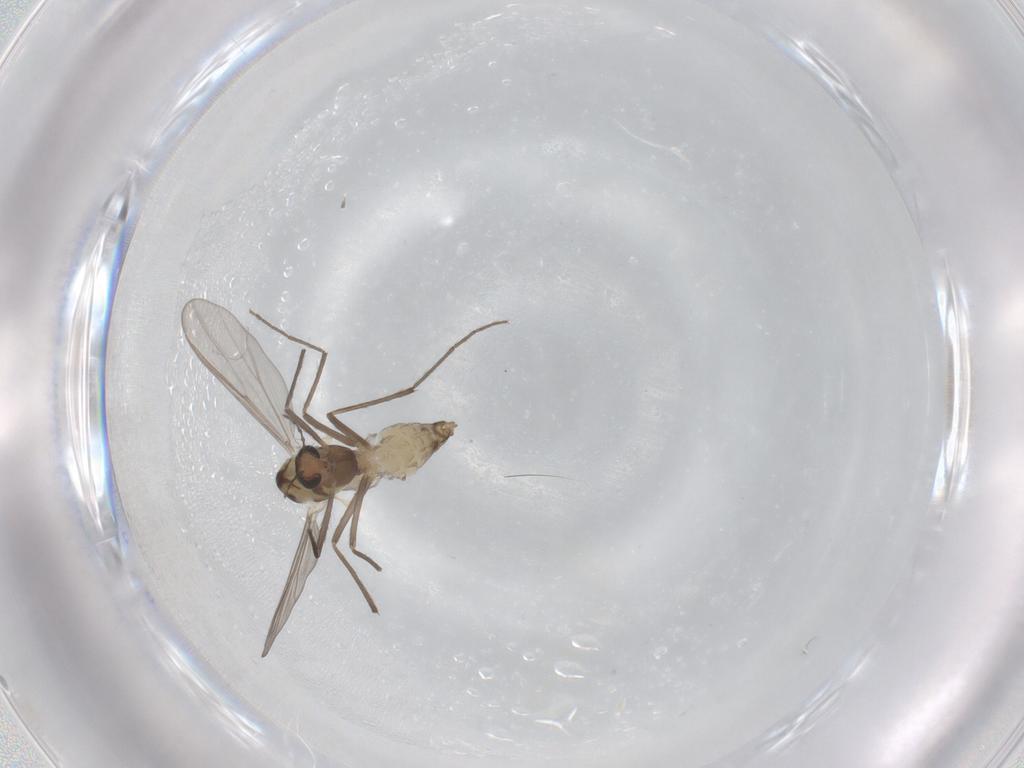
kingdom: Animalia
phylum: Arthropoda
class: Insecta
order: Diptera
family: Chironomidae
